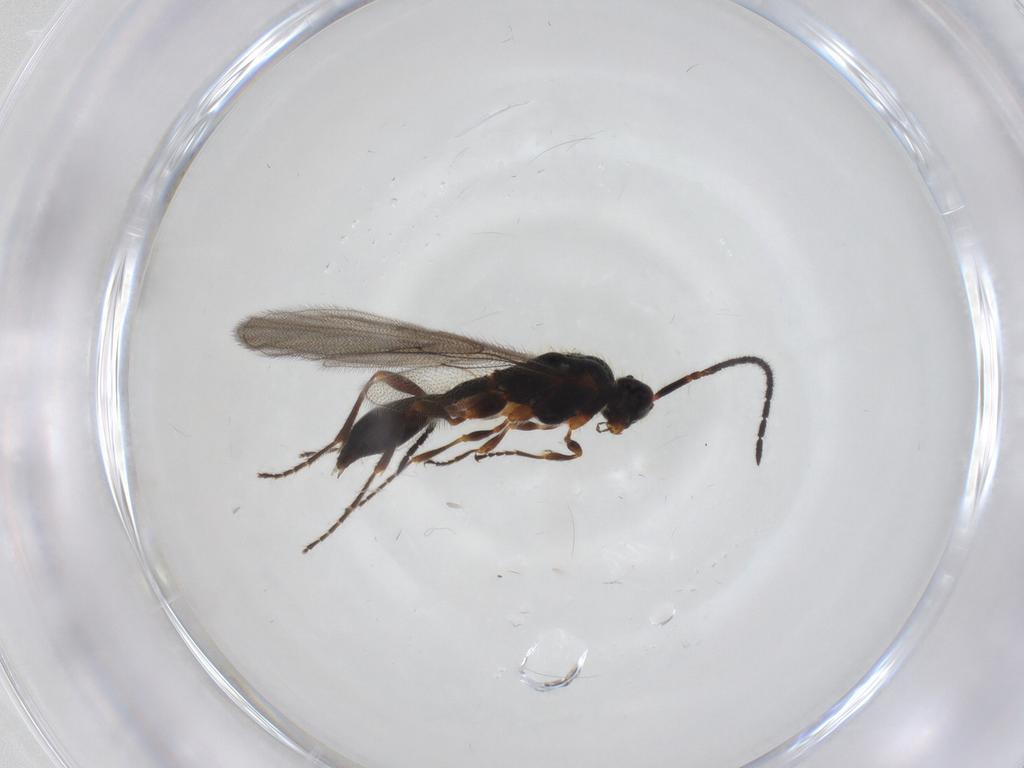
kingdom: Animalia
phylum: Arthropoda
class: Insecta
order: Hymenoptera
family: Diapriidae
